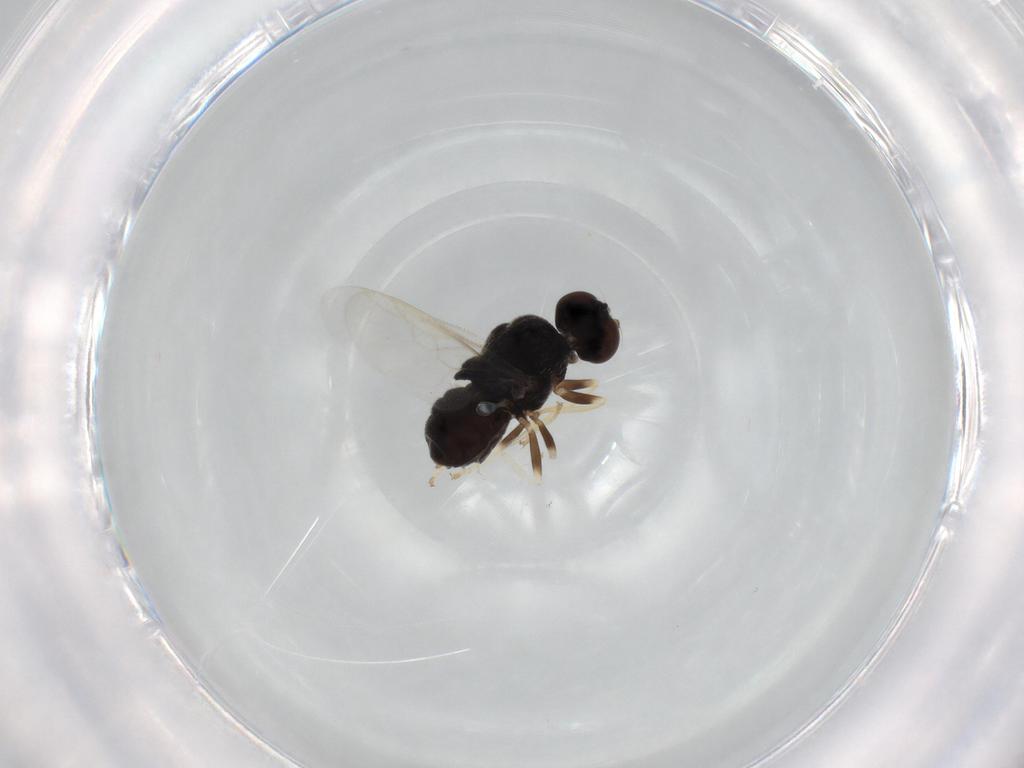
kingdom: Animalia
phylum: Arthropoda
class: Insecta
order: Diptera
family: Stratiomyidae
